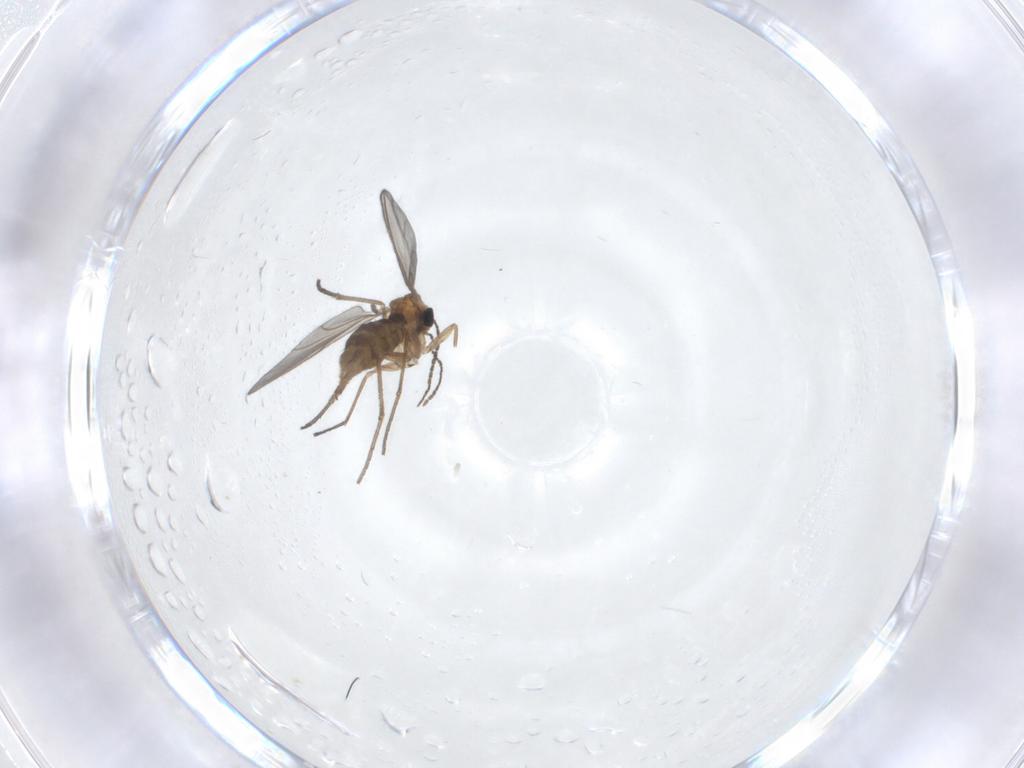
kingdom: Animalia
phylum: Arthropoda
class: Insecta
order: Diptera
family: Sciaridae
